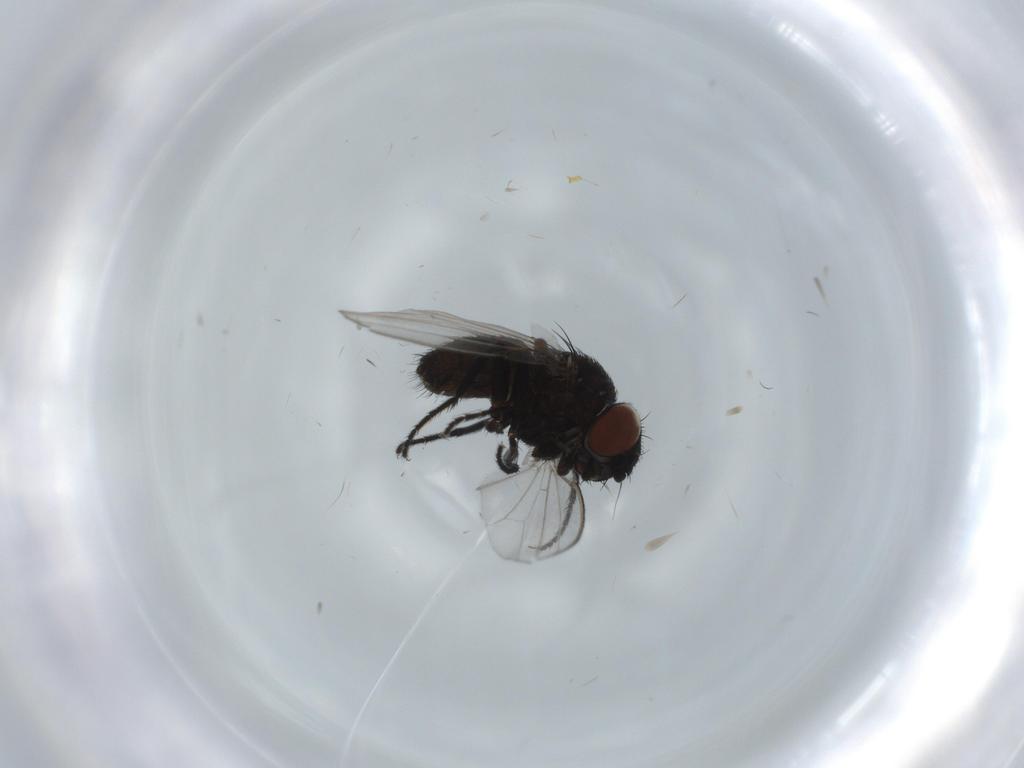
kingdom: Animalia
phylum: Arthropoda
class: Insecta
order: Diptera
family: Milichiidae
